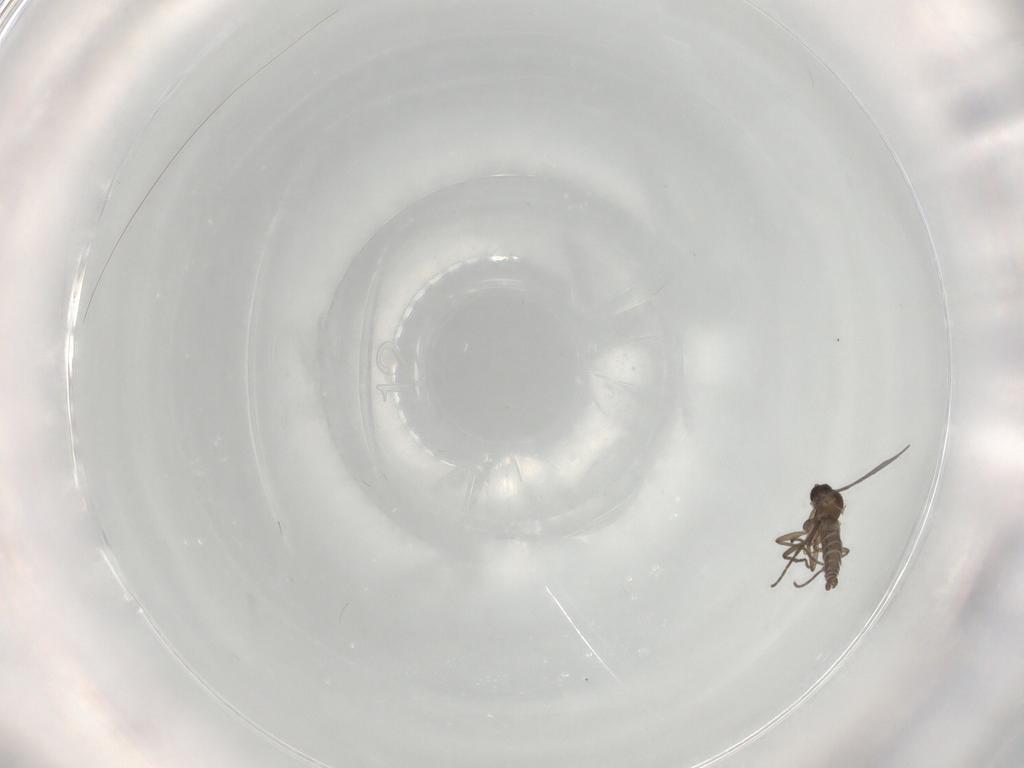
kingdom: Animalia
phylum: Arthropoda
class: Insecta
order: Diptera
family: Sciaridae
